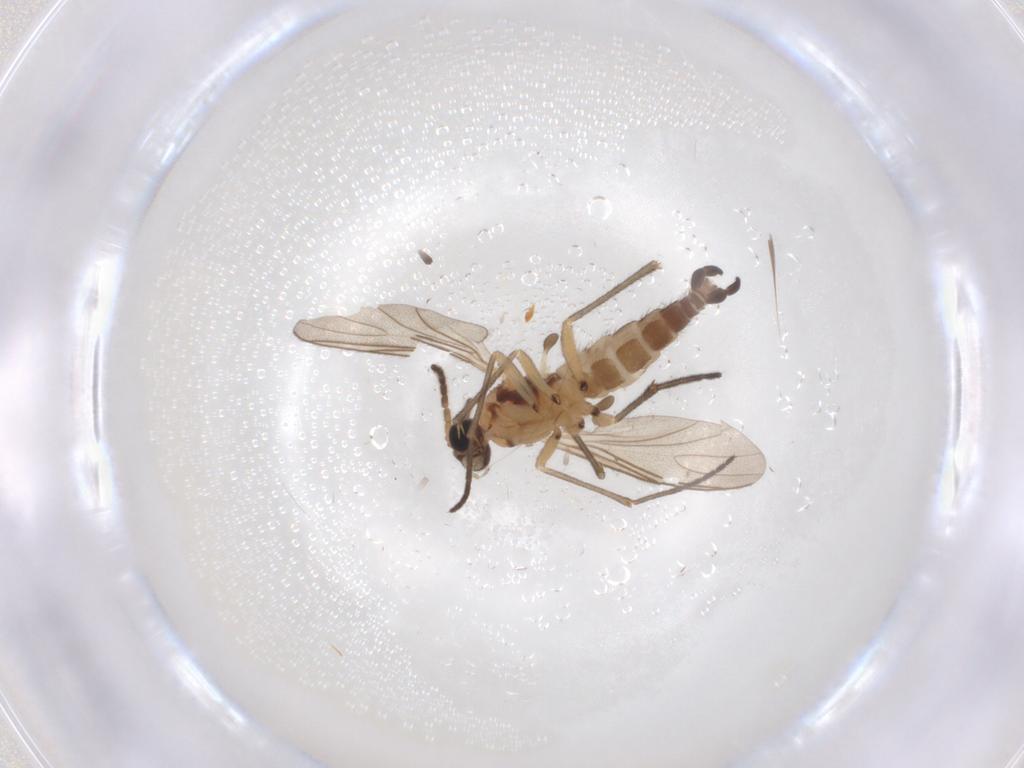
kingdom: Animalia
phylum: Arthropoda
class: Insecta
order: Diptera
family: Sciaridae
